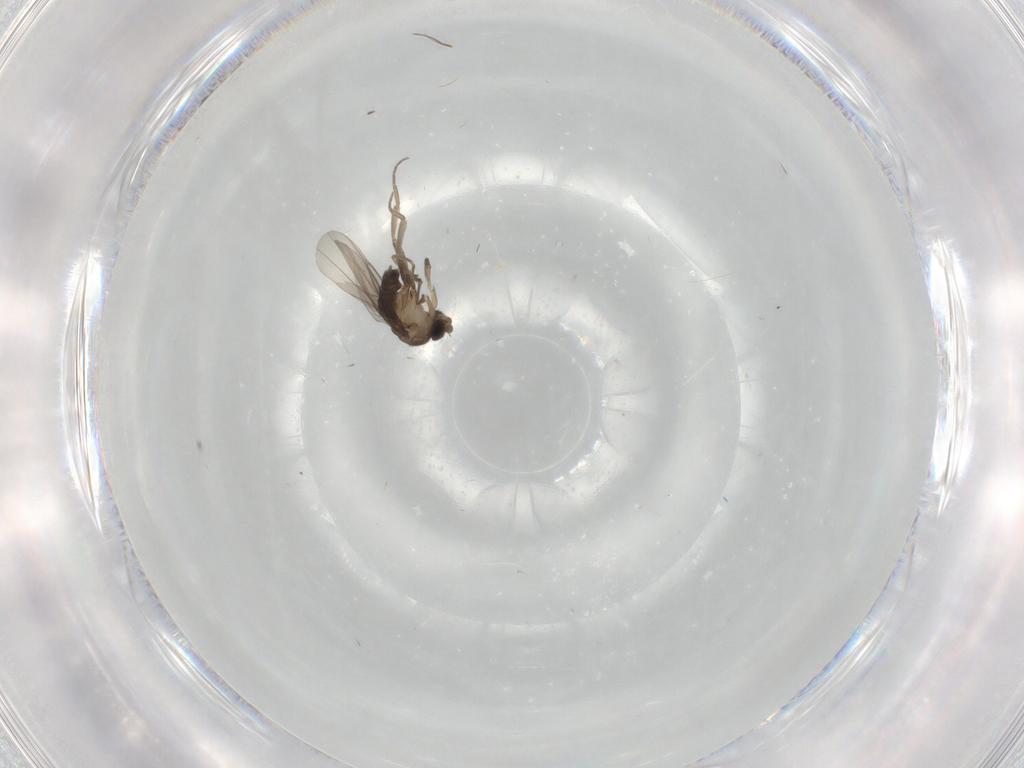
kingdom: Animalia
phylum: Arthropoda
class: Insecta
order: Diptera
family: Phoridae
